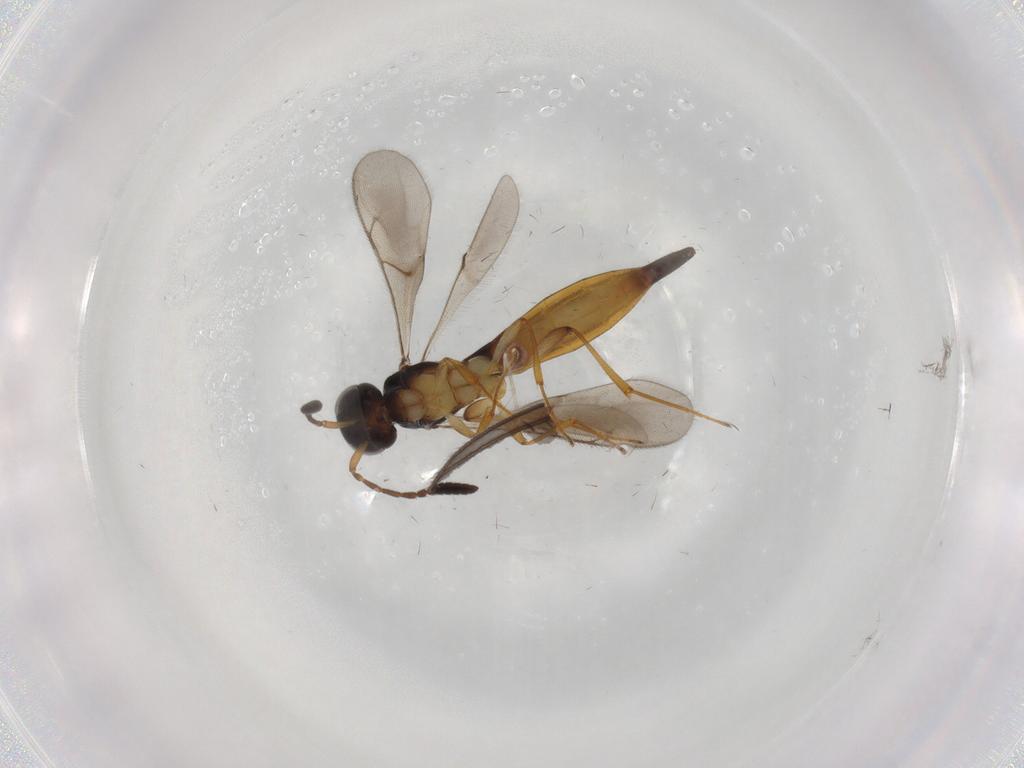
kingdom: Animalia
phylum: Arthropoda
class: Insecta
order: Hymenoptera
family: Scelionidae
